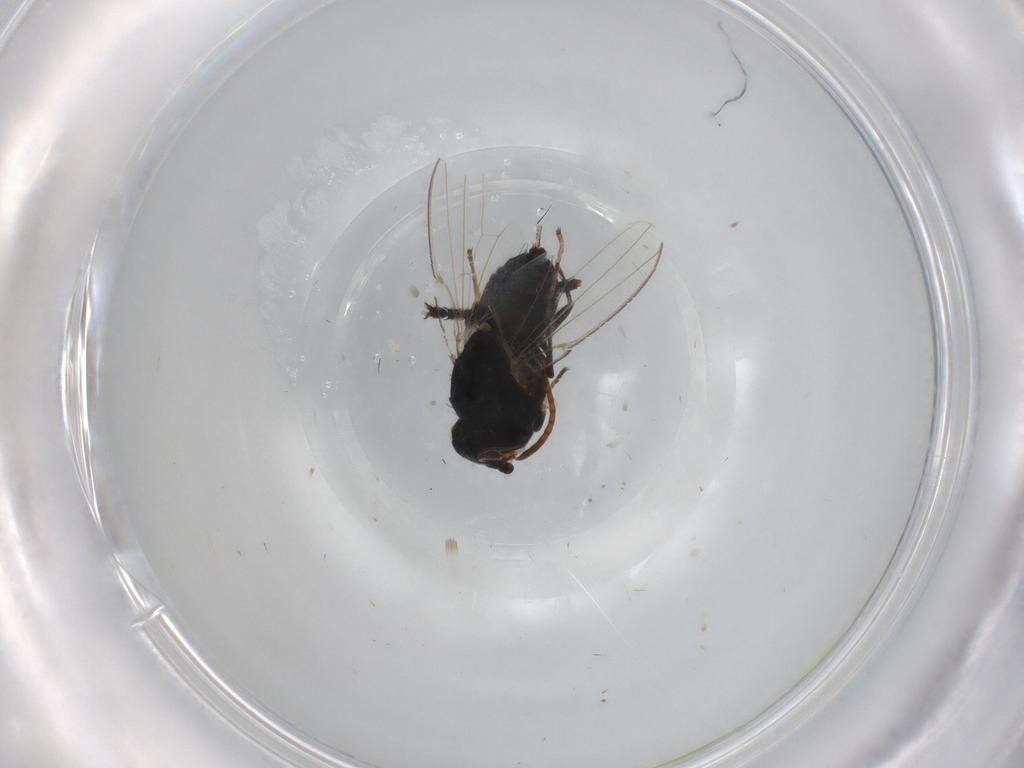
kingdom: Animalia
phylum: Arthropoda
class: Insecta
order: Diptera
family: Milichiidae
